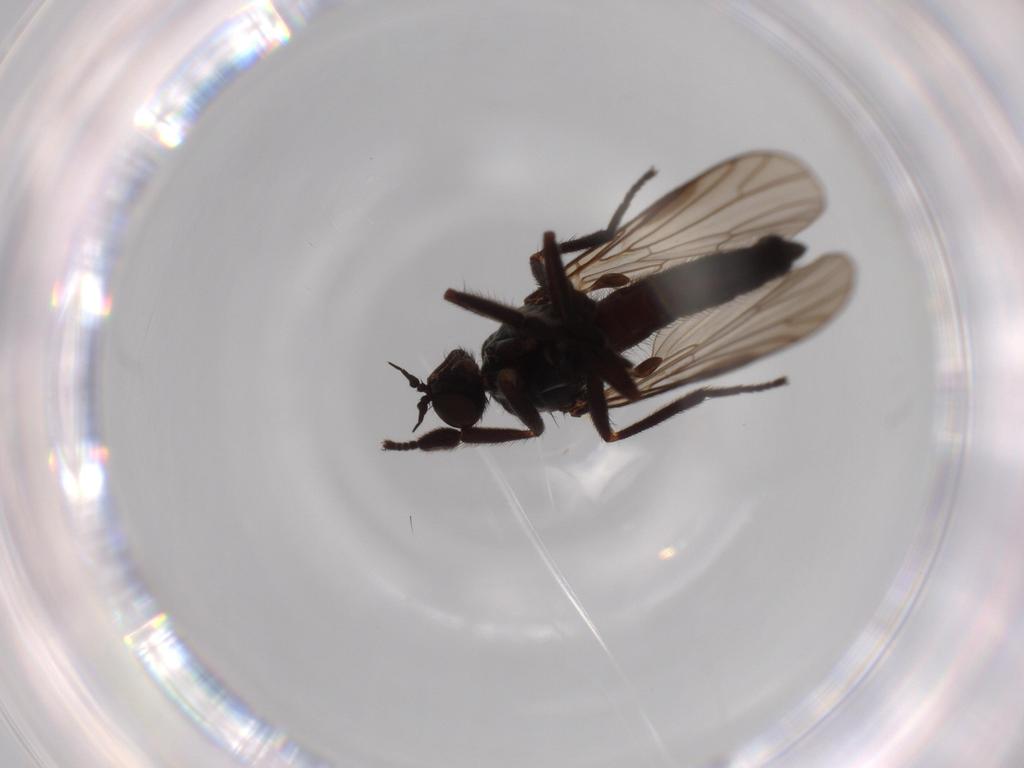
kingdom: Animalia
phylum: Arthropoda
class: Insecta
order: Diptera
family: Empididae
